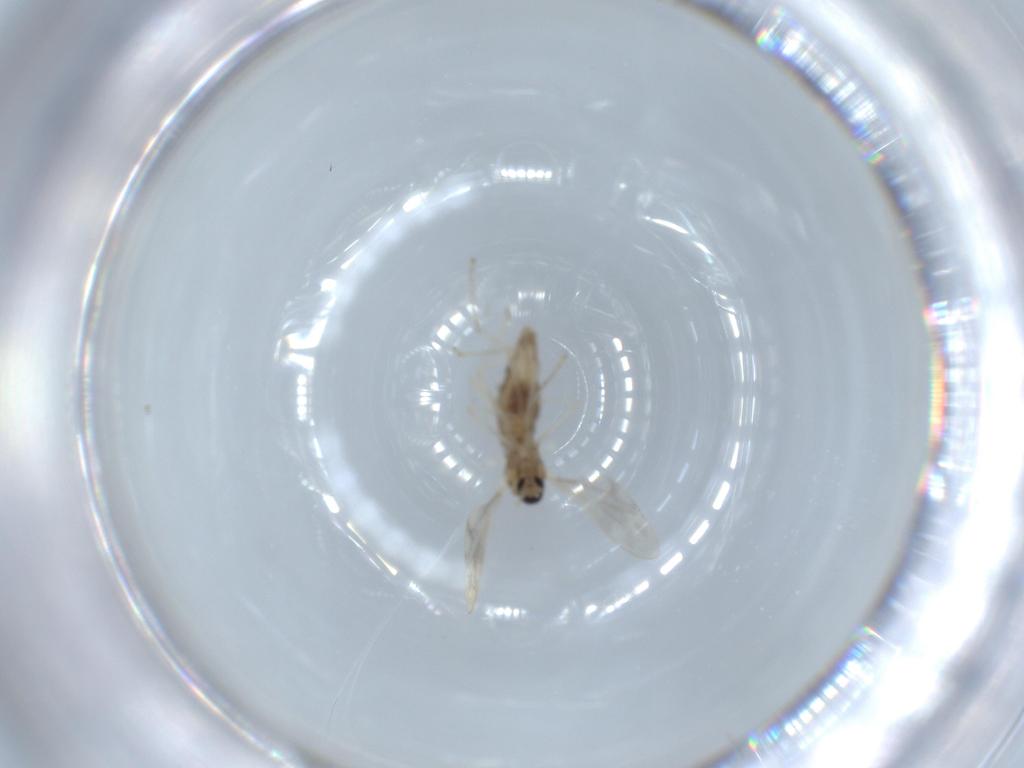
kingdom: Animalia
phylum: Arthropoda
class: Insecta
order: Diptera
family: Cecidomyiidae
